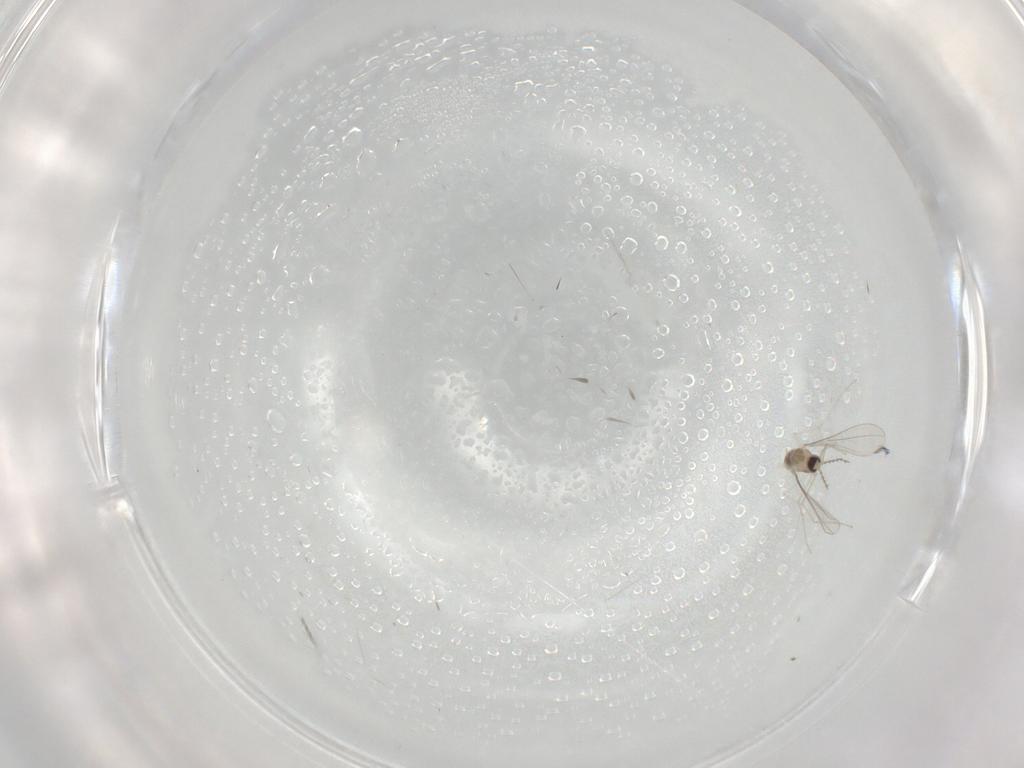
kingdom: Animalia
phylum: Arthropoda
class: Insecta
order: Diptera
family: Cecidomyiidae
